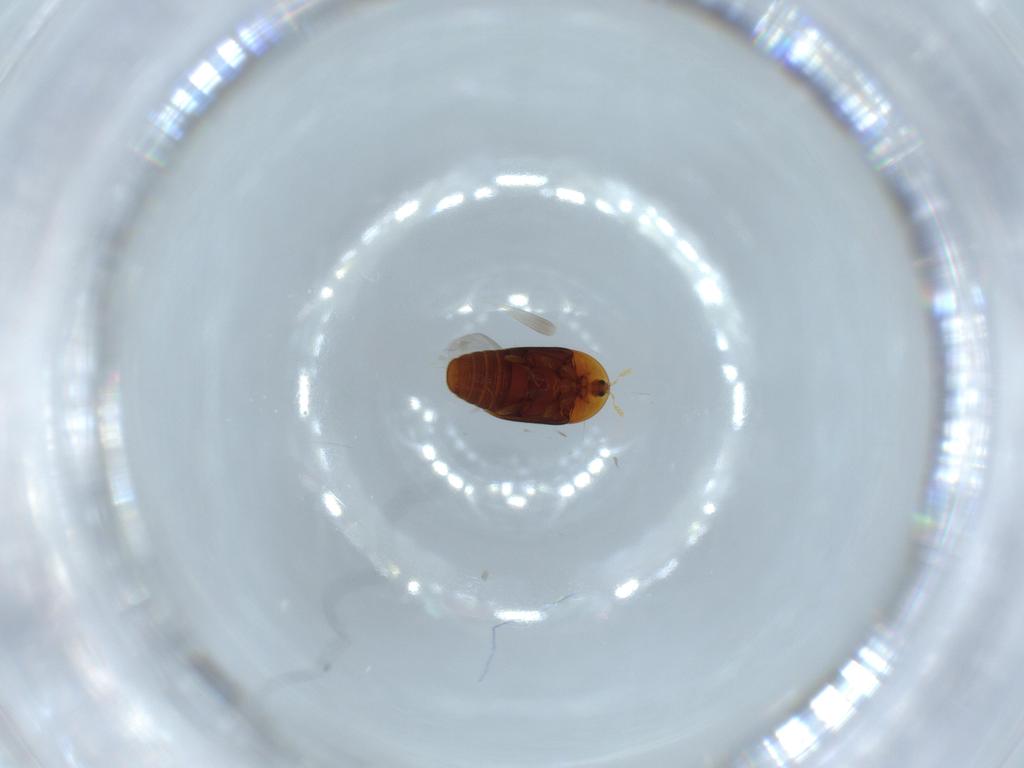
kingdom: Animalia
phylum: Arthropoda
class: Insecta
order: Coleoptera
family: Corylophidae
